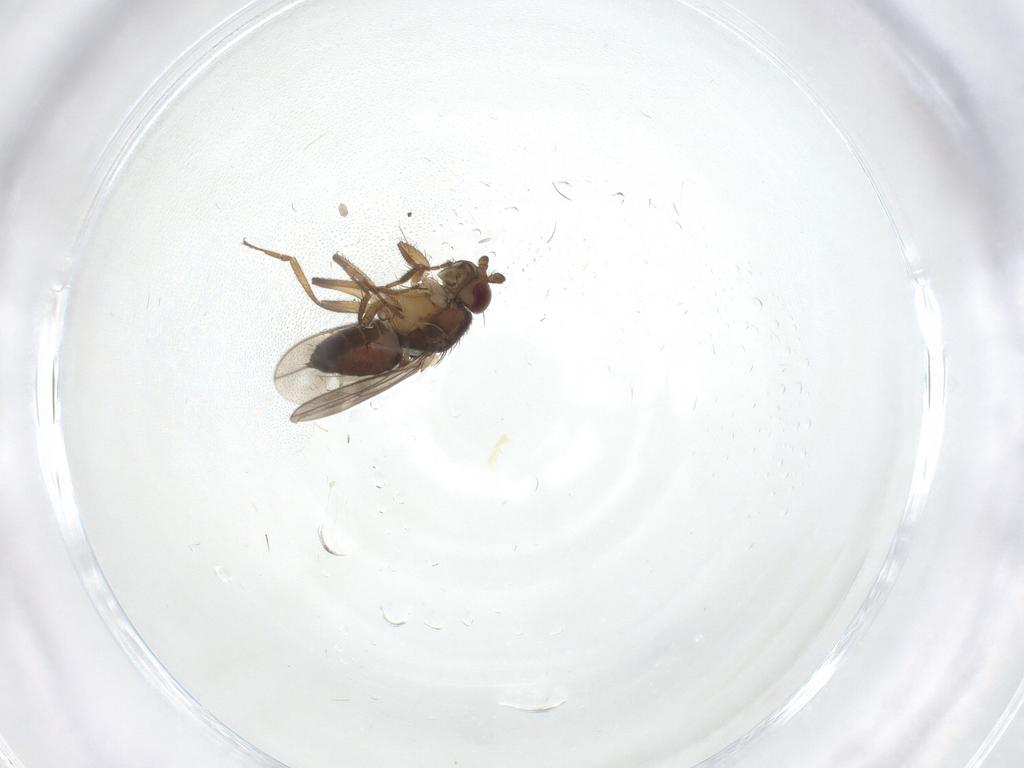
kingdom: Animalia
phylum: Arthropoda
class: Insecta
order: Diptera
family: Sphaeroceridae
